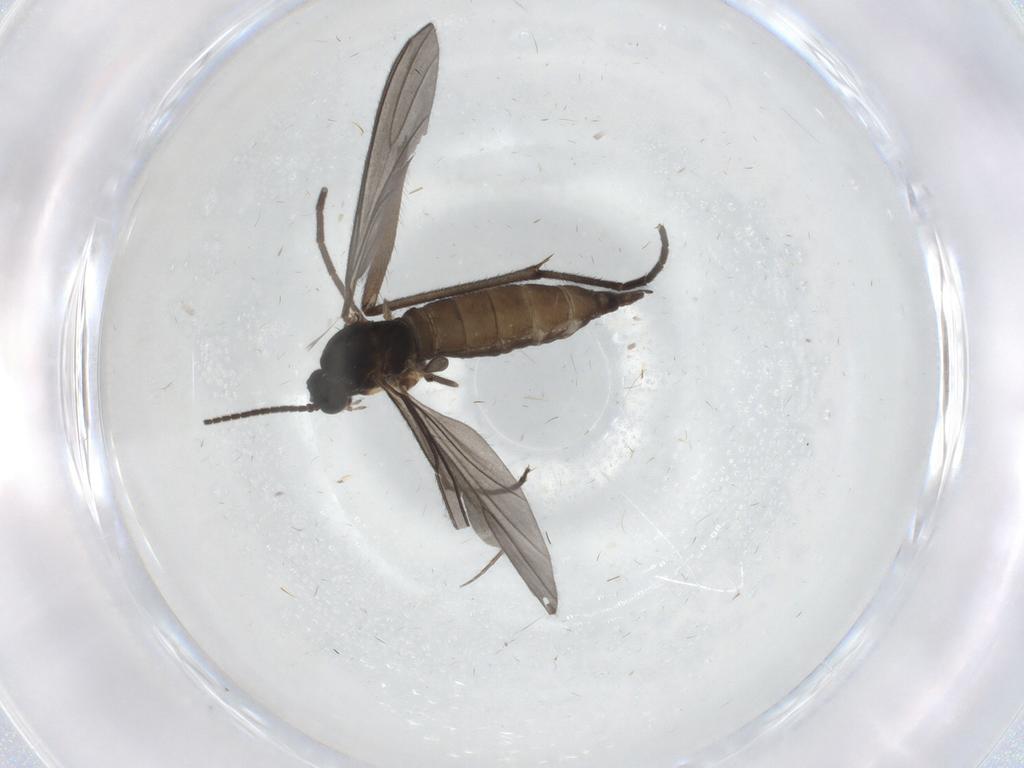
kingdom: Animalia
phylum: Arthropoda
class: Insecta
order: Diptera
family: Sciaridae
